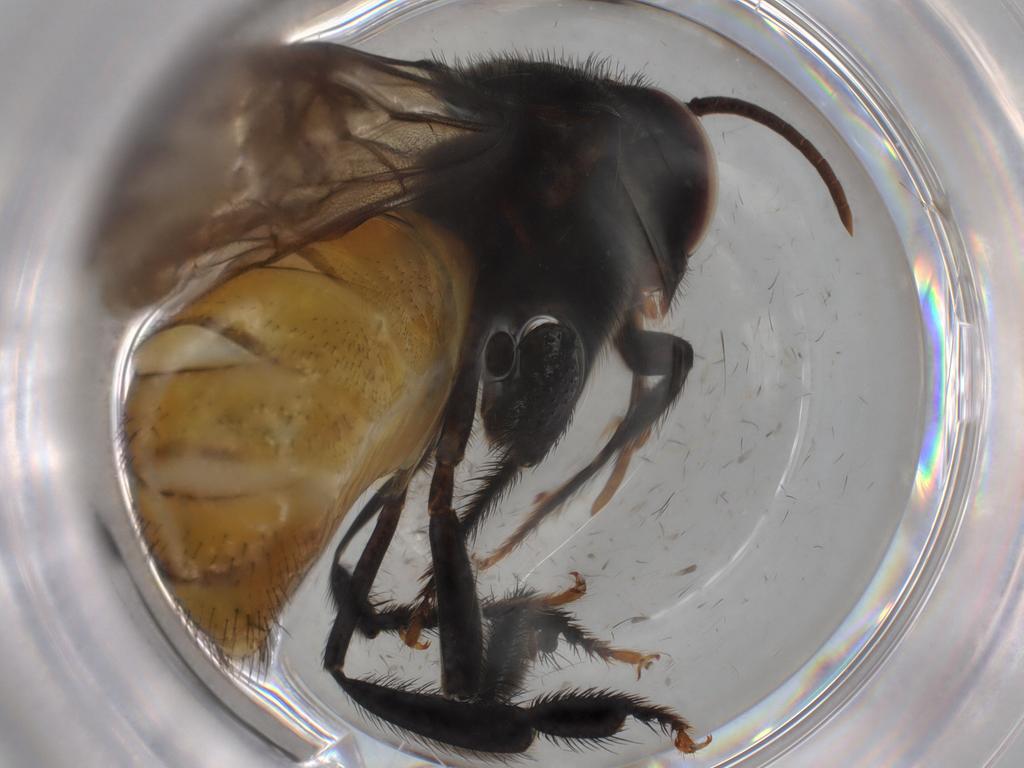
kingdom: Animalia
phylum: Arthropoda
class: Insecta
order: Hymenoptera
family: Apidae
